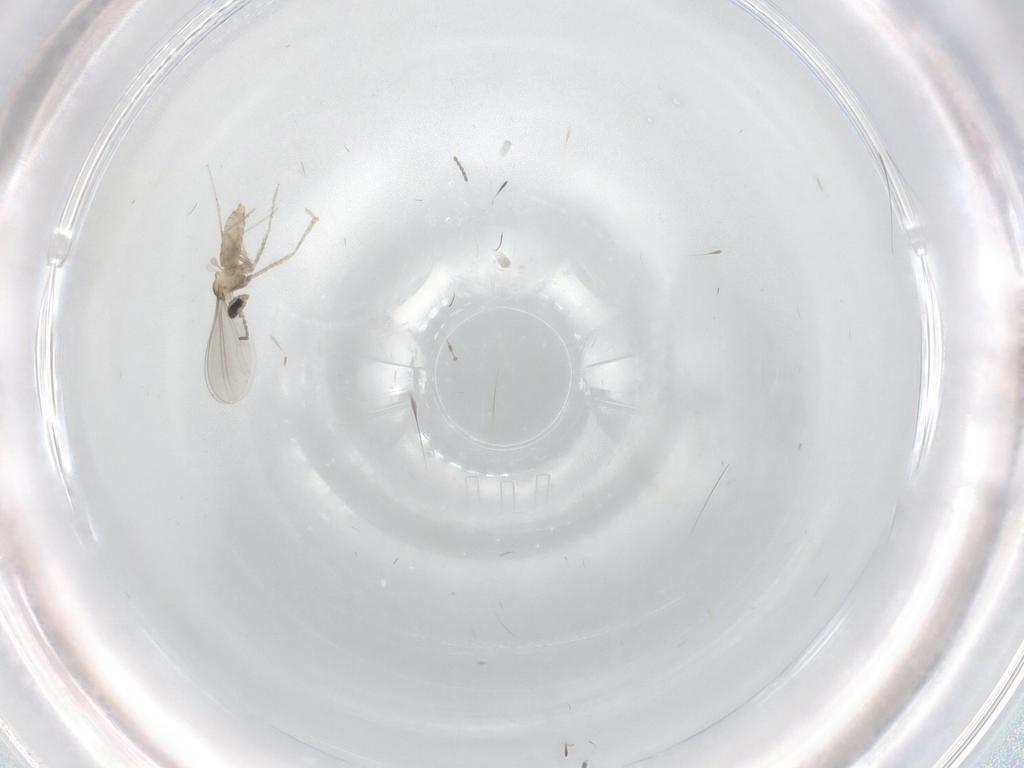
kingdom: Animalia
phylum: Arthropoda
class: Insecta
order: Diptera
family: Cecidomyiidae
